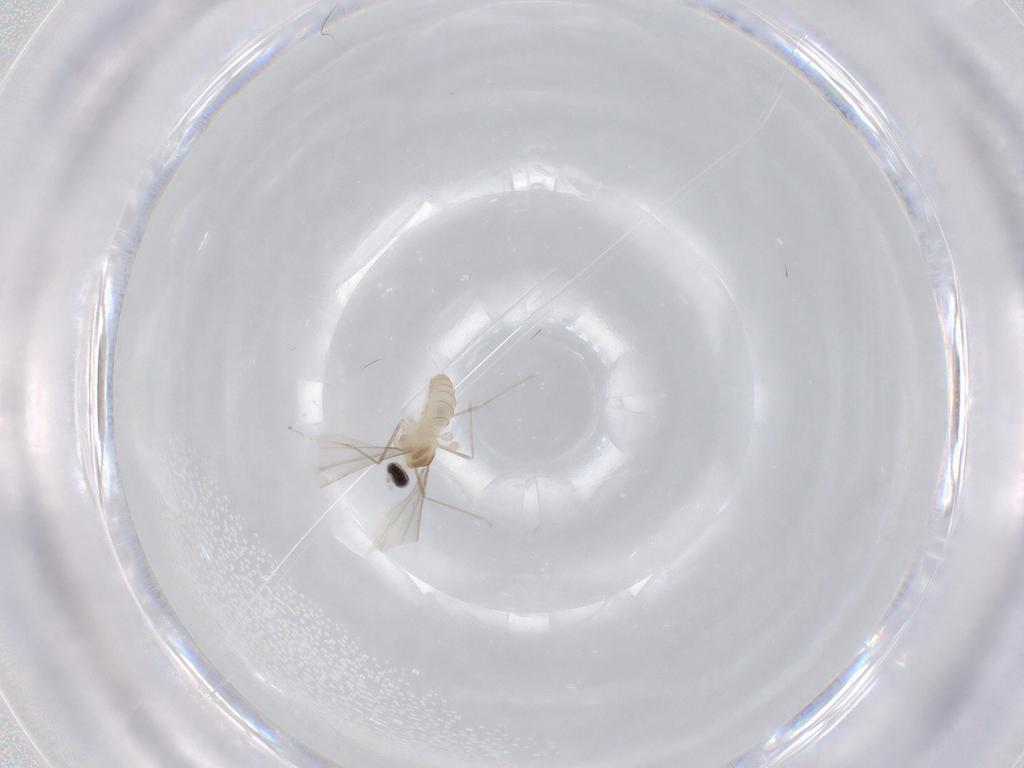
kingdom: Animalia
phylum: Arthropoda
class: Insecta
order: Diptera
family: Cecidomyiidae
